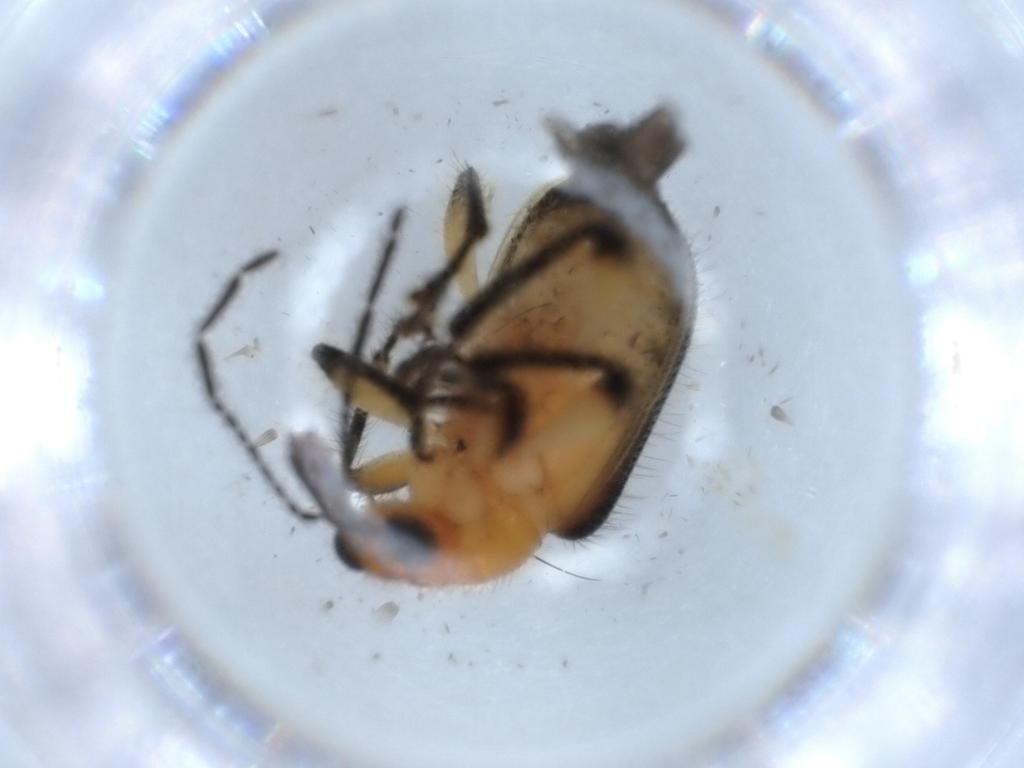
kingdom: Animalia
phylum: Arthropoda
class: Insecta
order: Coleoptera
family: Attelabidae
